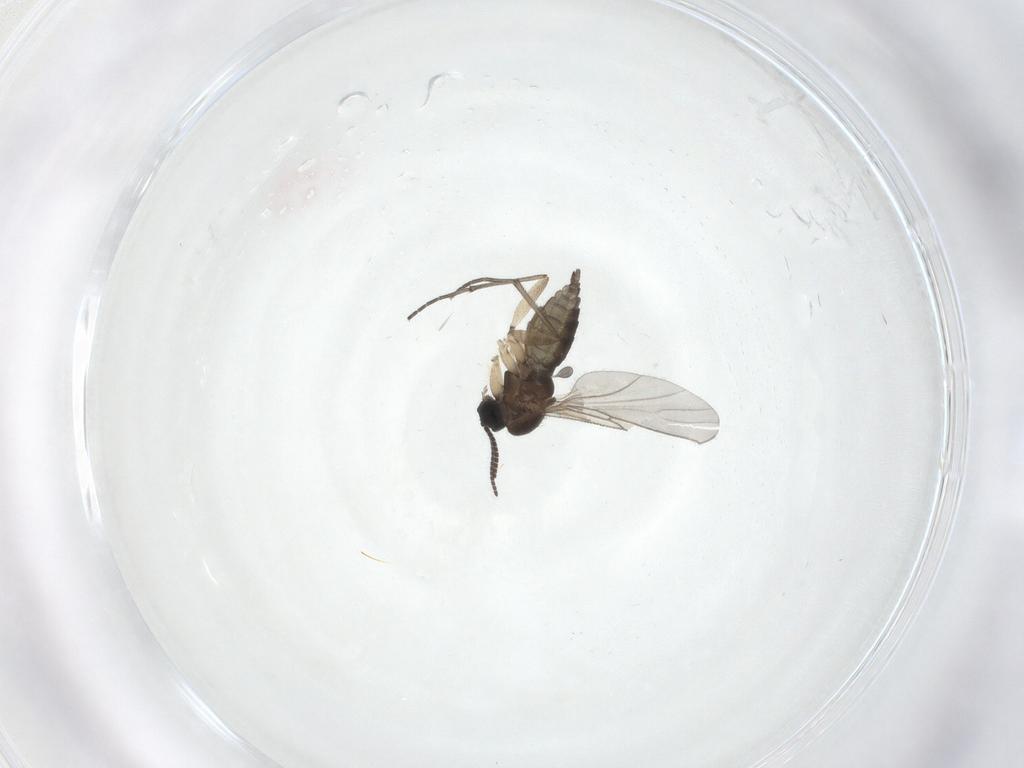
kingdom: Animalia
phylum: Arthropoda
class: Insecta
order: Diptera
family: Sciaridae
